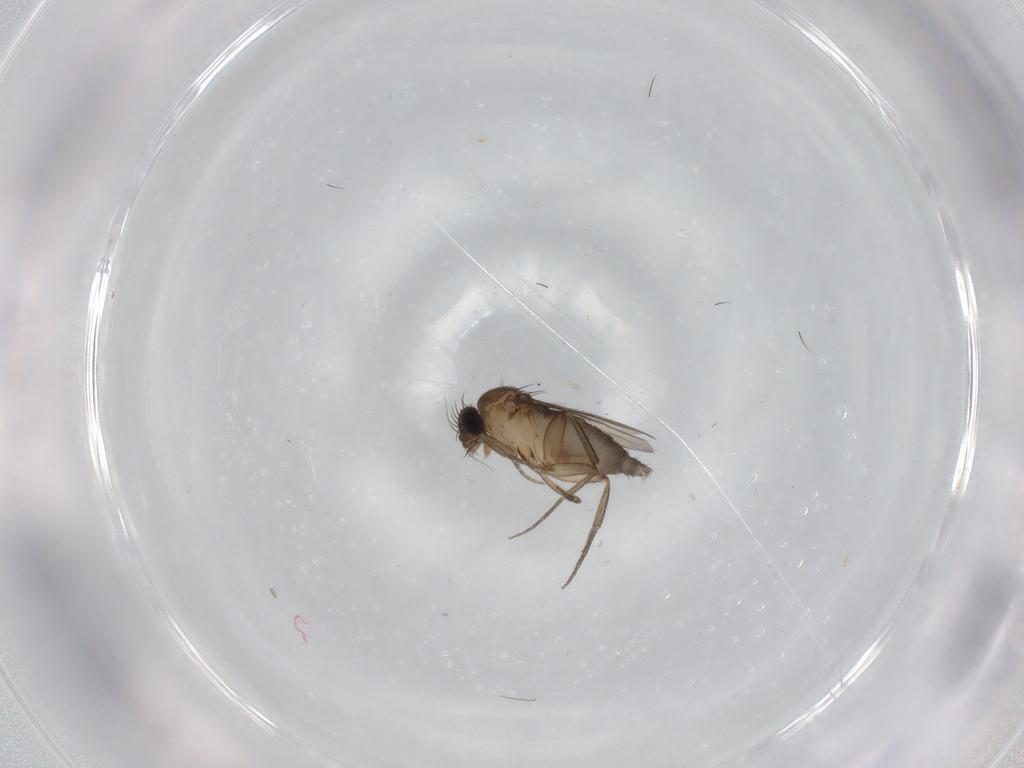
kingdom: Animalia
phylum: Arthropoda
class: Insecta
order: Diptera
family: Phoridae
